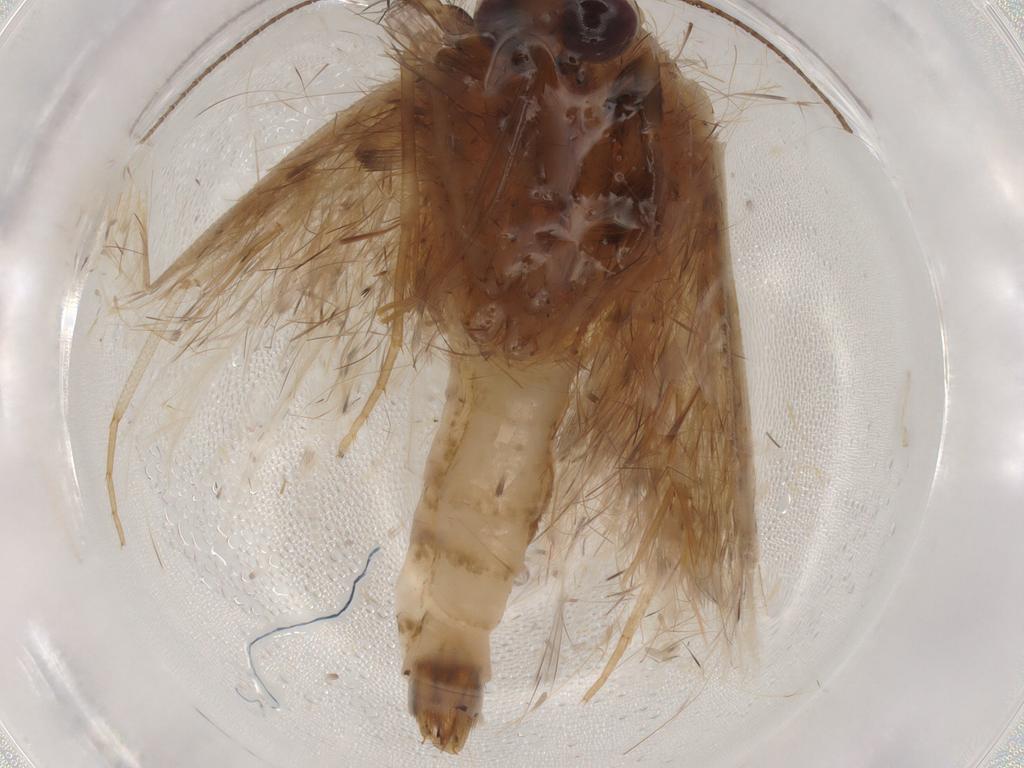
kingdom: Animalia
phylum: Arthropoda
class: Insecta
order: Lepidoptera
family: Erebidae
